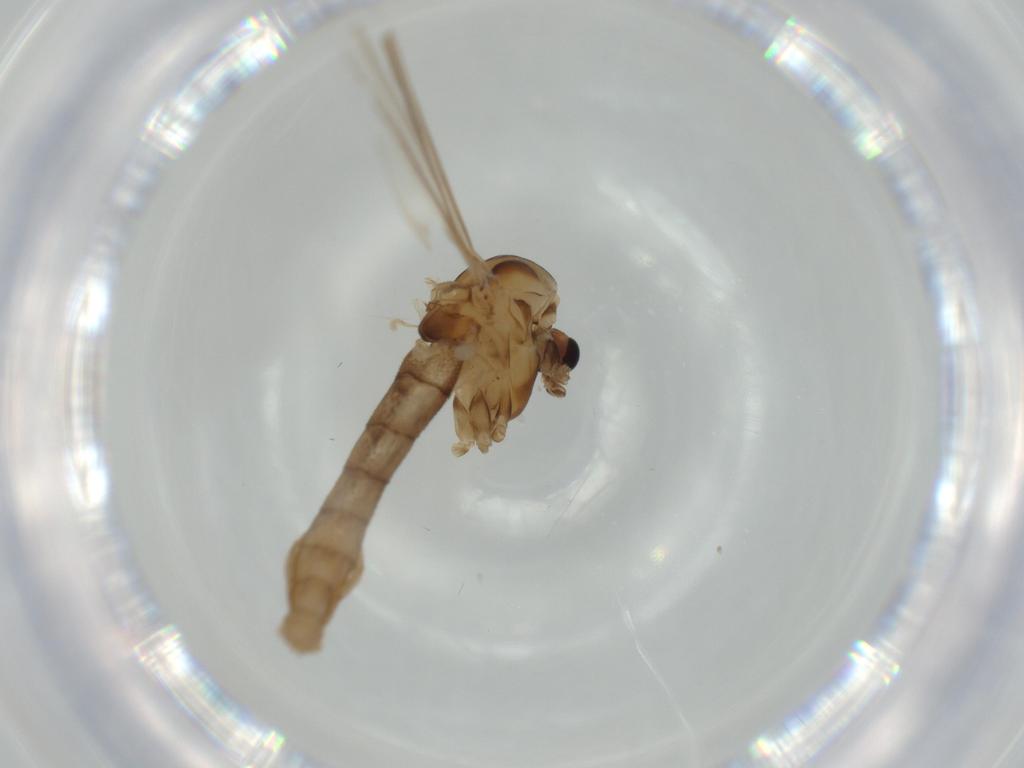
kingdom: Animalia
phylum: Arthropoda
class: Insecta
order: Diptera
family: Chironomidae
